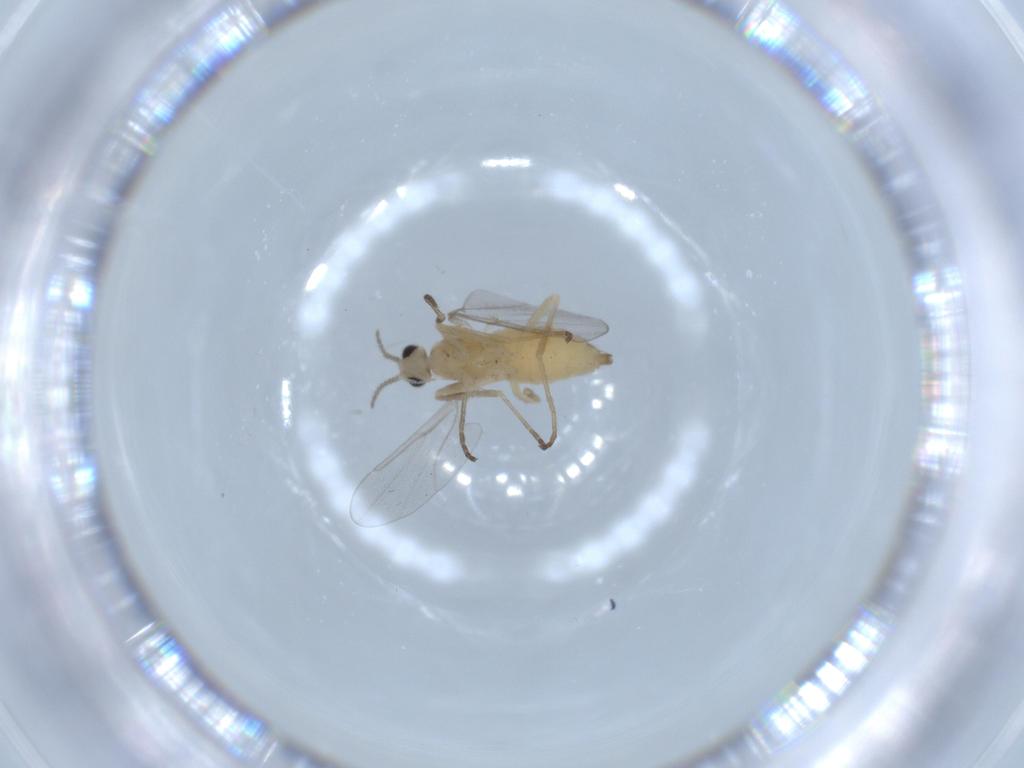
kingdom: Animalia
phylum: Arthropoda
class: Insecta
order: Diptera
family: Cecidomyiidae
